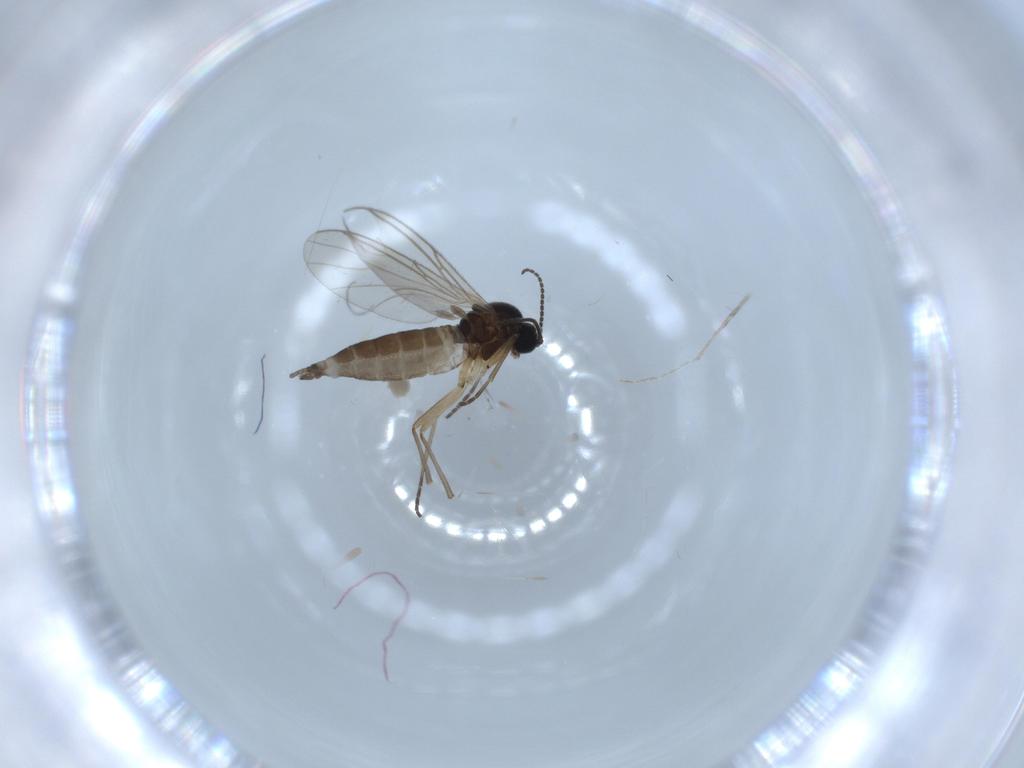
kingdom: Animalia
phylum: Arthropoda
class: Insecta
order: Diptera
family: Sciaridae
